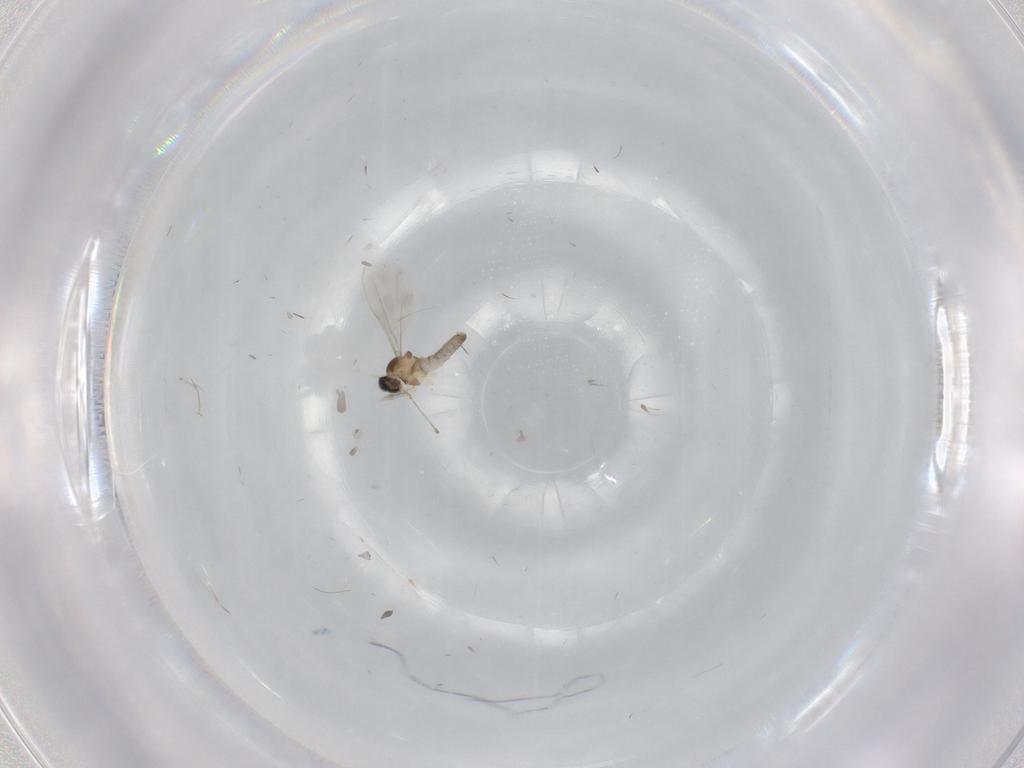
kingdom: Animalia
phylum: Arthropoda
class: Insecta
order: Diptera
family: Cecidomyiidae
